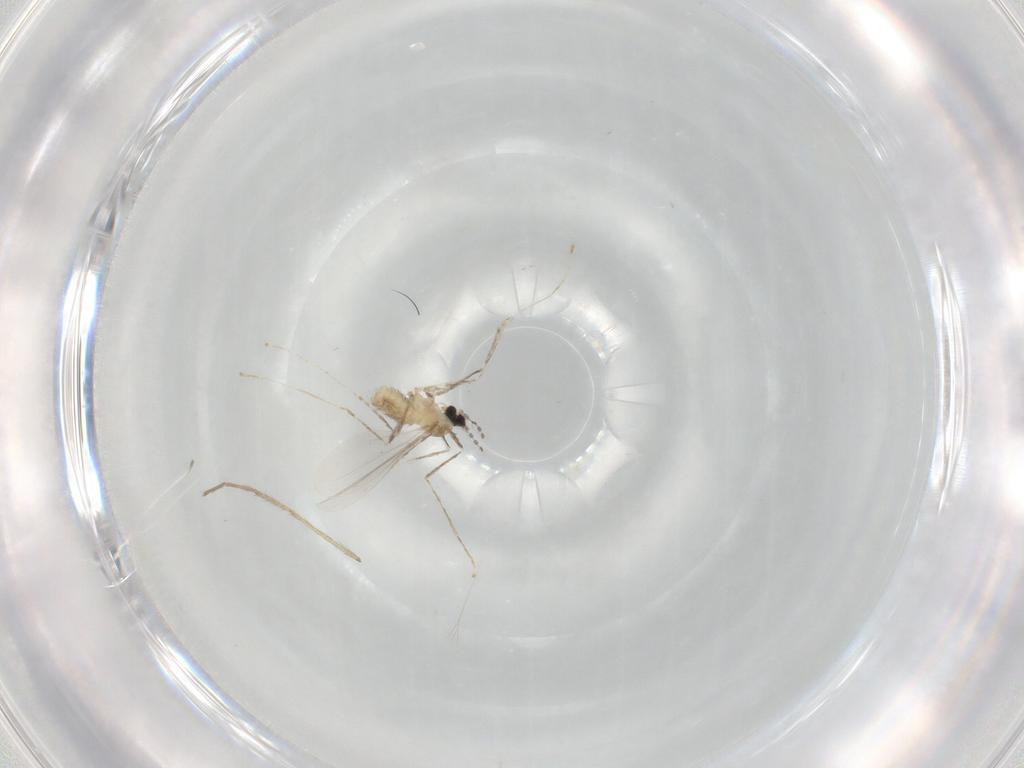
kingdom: Animalia
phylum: Arthropoda
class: Insecta
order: Diptera
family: Cecidomyiidae
